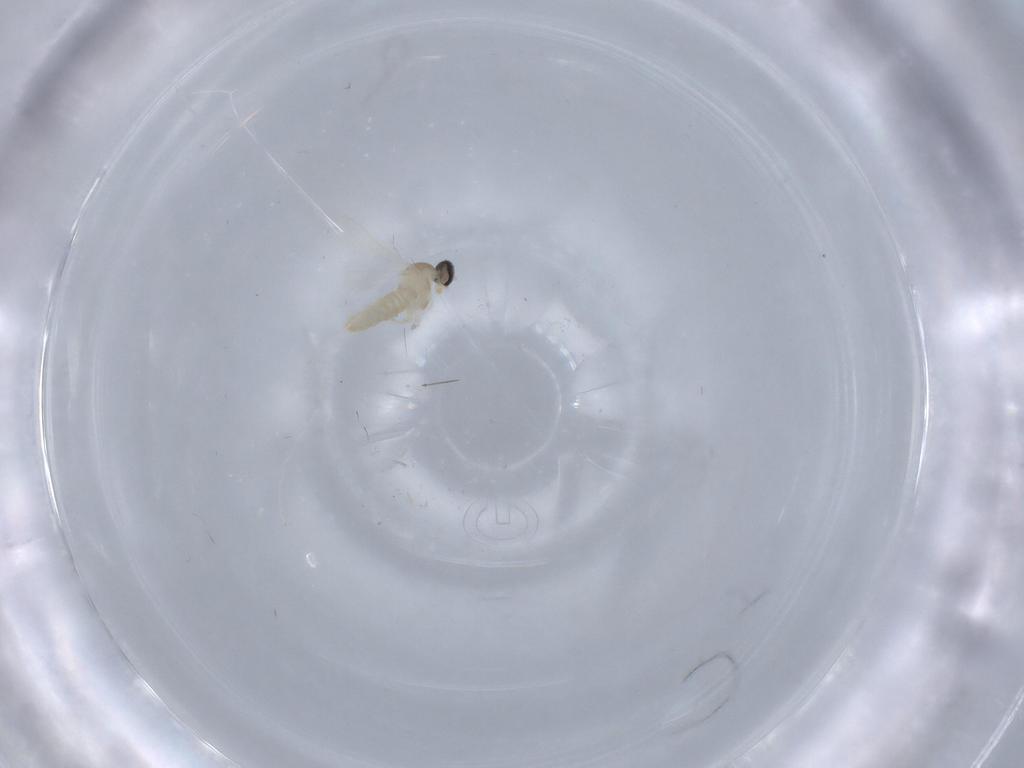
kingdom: Animalia
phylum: Arthropoda
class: Insecta
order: Diptera
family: Cecidomyiidae
